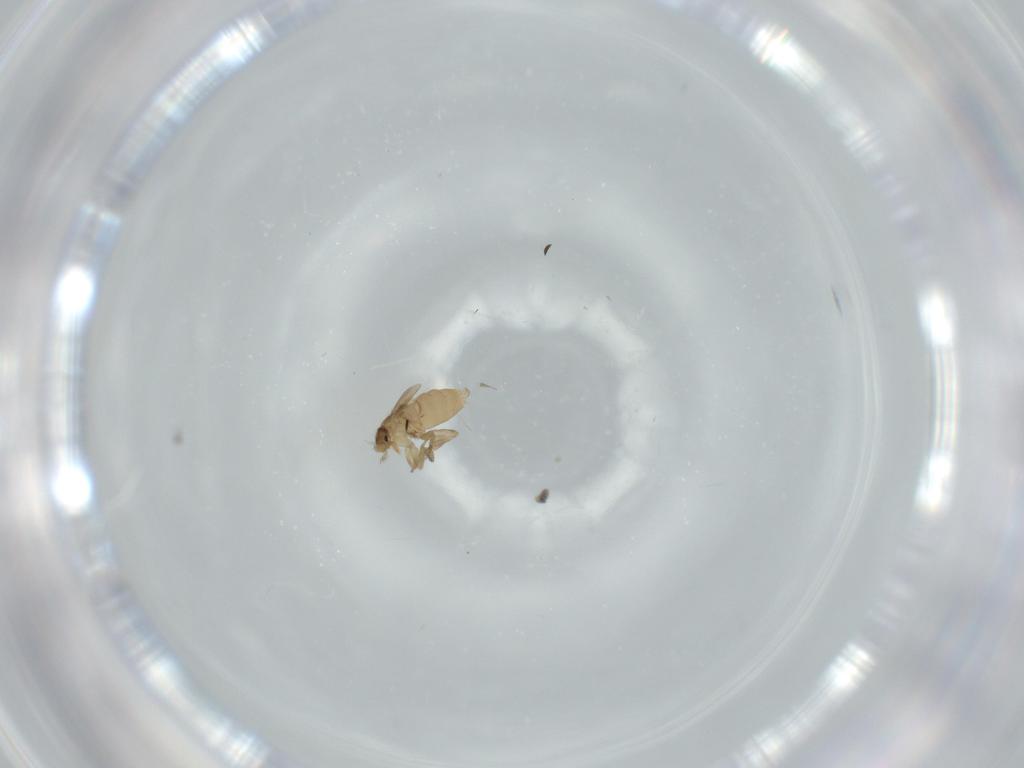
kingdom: Animalia
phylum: Arthropoda
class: Insecta
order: Diptera
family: Phoridae
